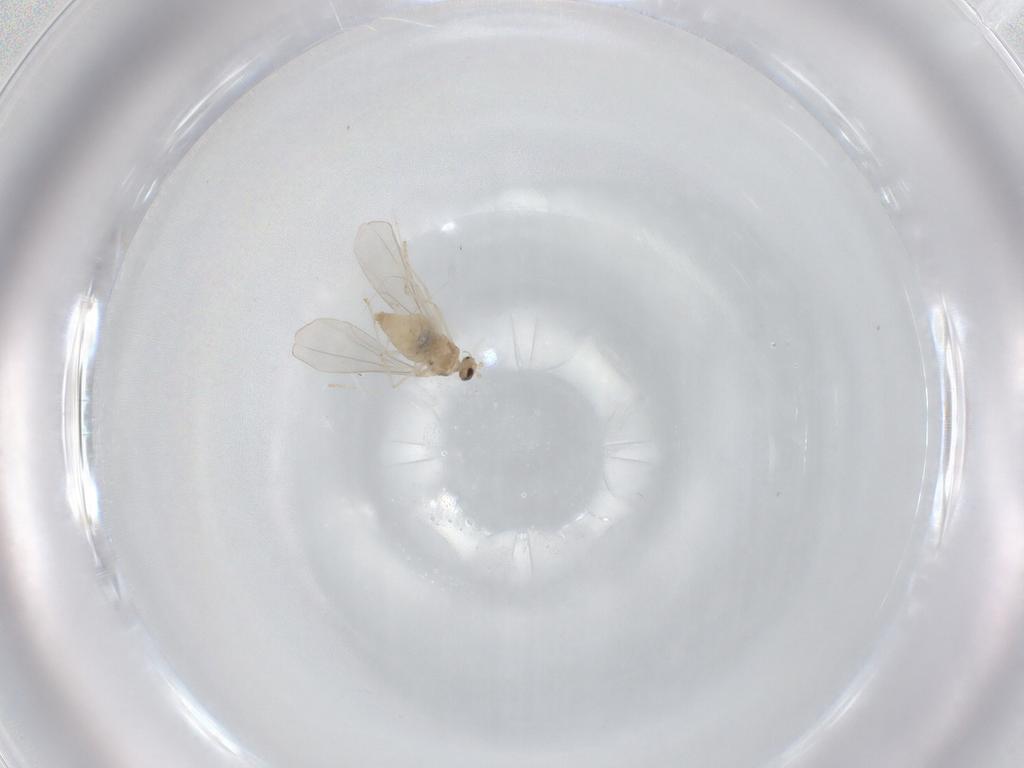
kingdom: Animalia
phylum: Arthropoda
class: Insecta
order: Diptera
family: Cecidomyiidae
